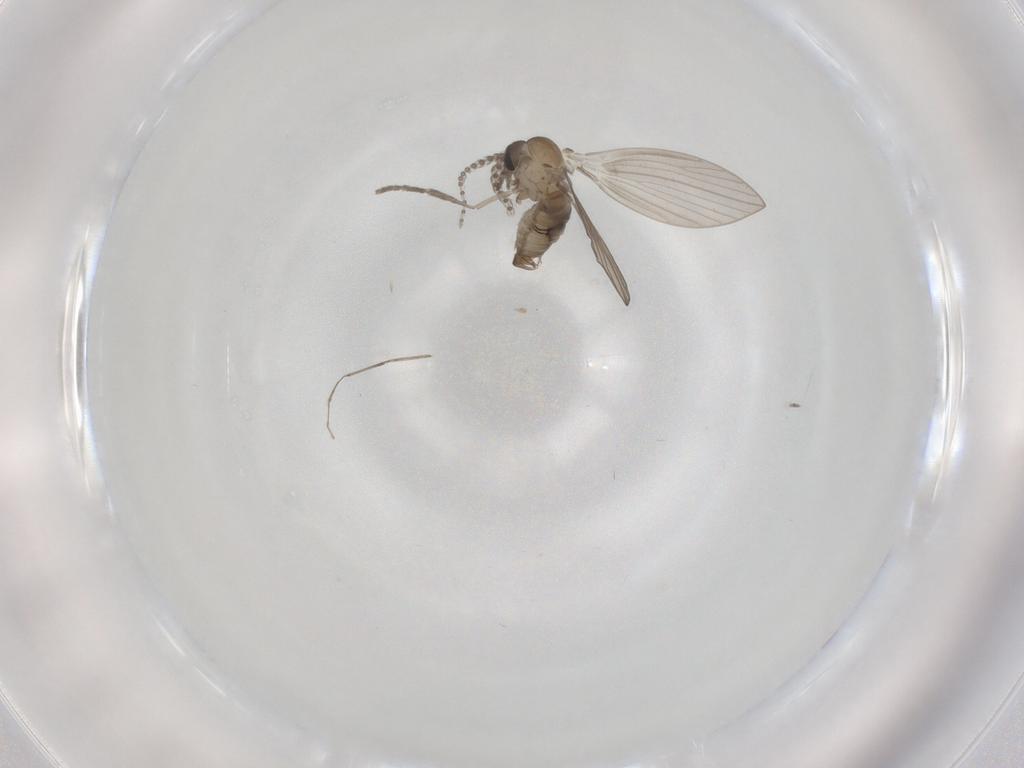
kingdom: Animalia
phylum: Arthropoda
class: Insecta
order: Diptera
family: Psychodidae
